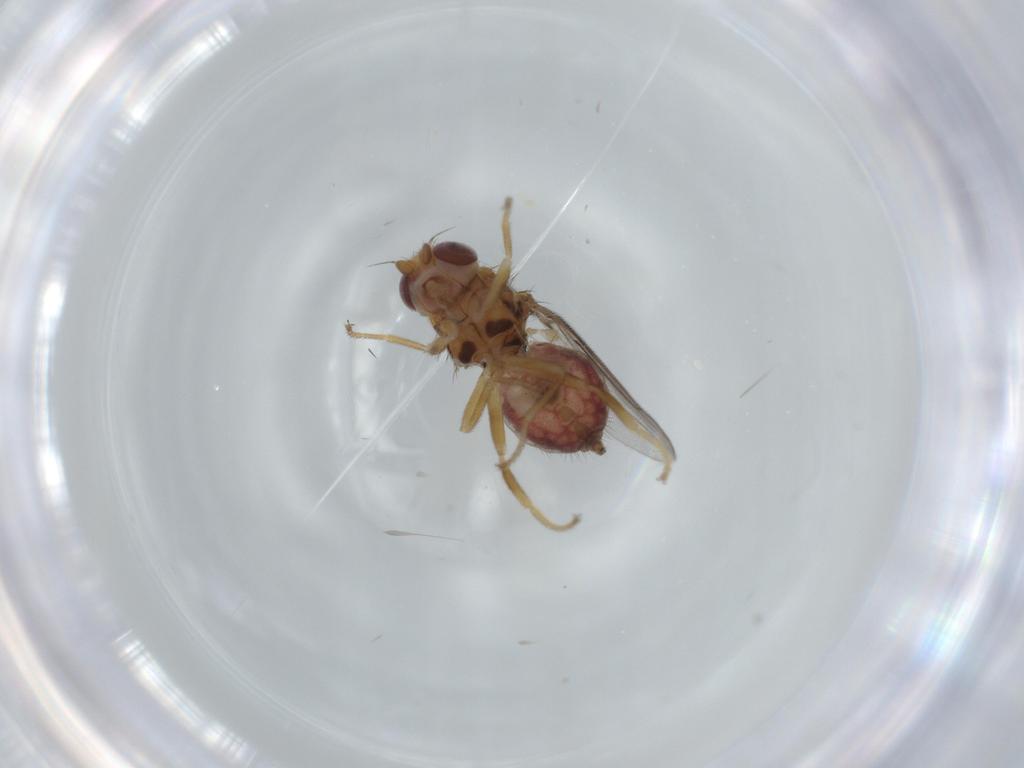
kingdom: Animalia
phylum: Arthropoda
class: Insecta
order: Diptera
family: Chloropidae
